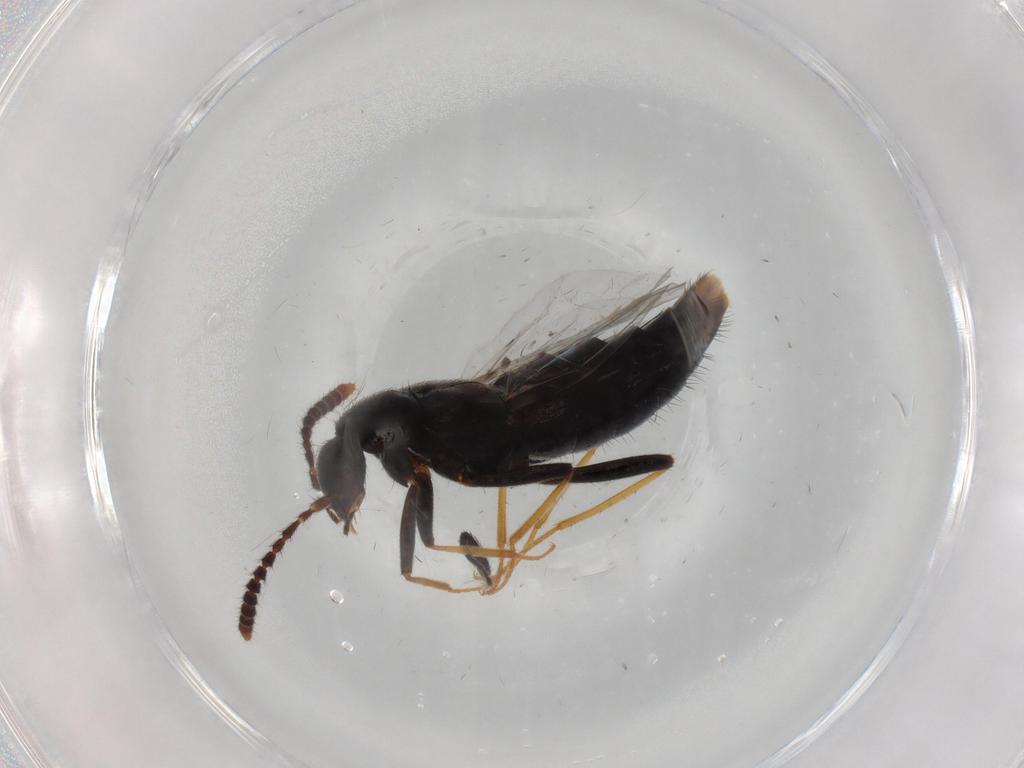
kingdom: Animalia
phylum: Arthropoda
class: Insecta
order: Coleoptera
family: Staphylinidae
